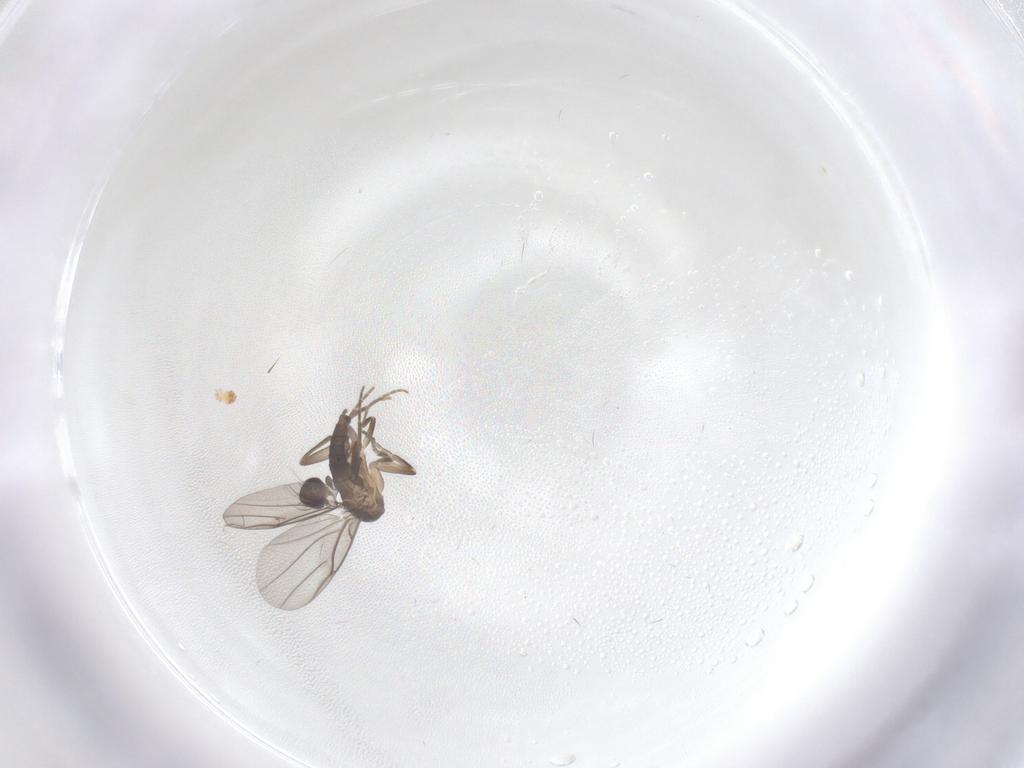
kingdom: Animalia
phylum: Arthropoda
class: Insecta
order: Diptera
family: Phoridae
